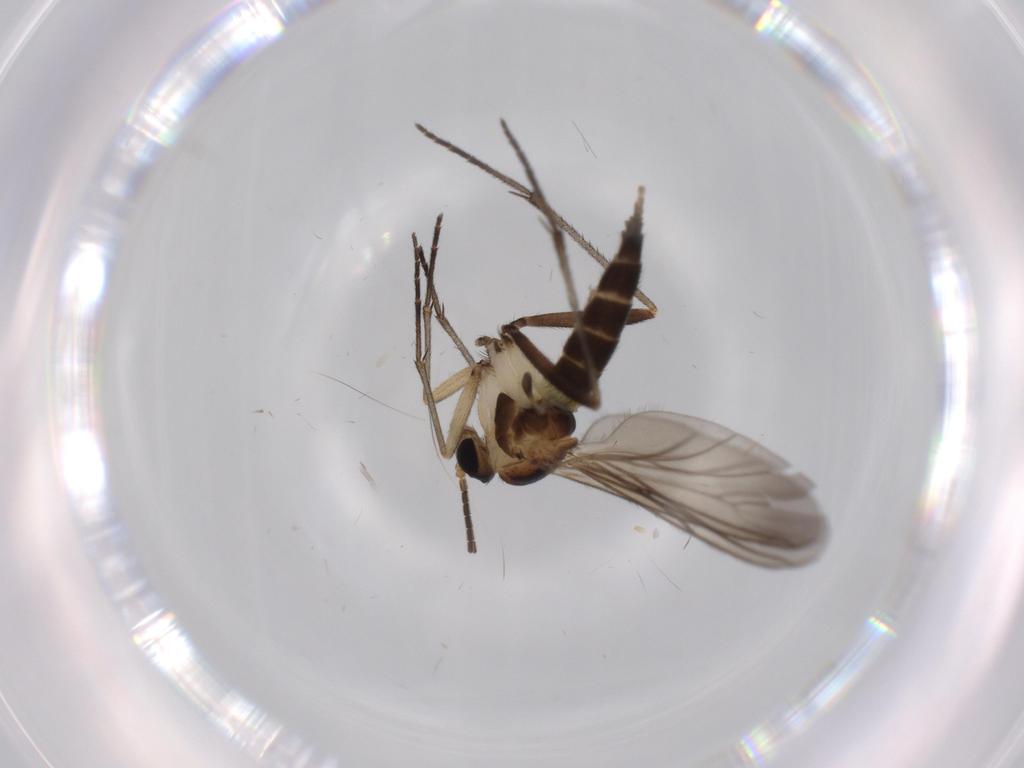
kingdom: Animalia
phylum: Arthropoda
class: Insecta
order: Diptera
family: Sciaridae
